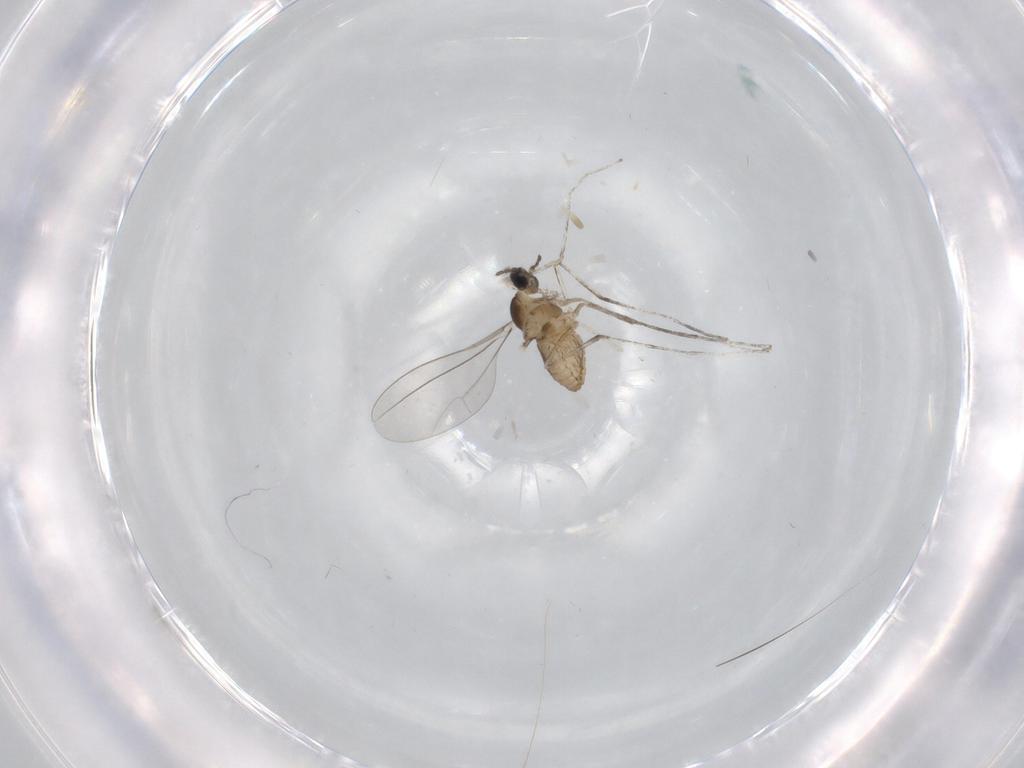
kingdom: Animalia
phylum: Arthropoda
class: Insecta
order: Diptera
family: Cecidomyiidae
